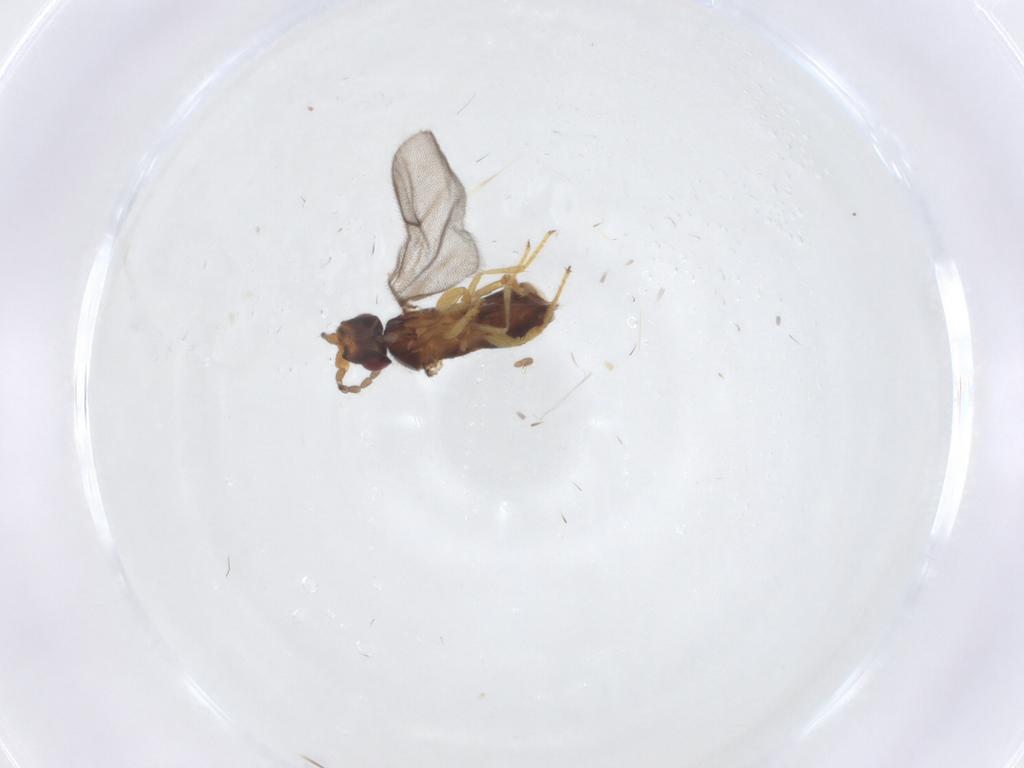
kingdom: Animalia
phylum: Arthropoda
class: Insecta
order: Hymenoptera
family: Agaonidae
